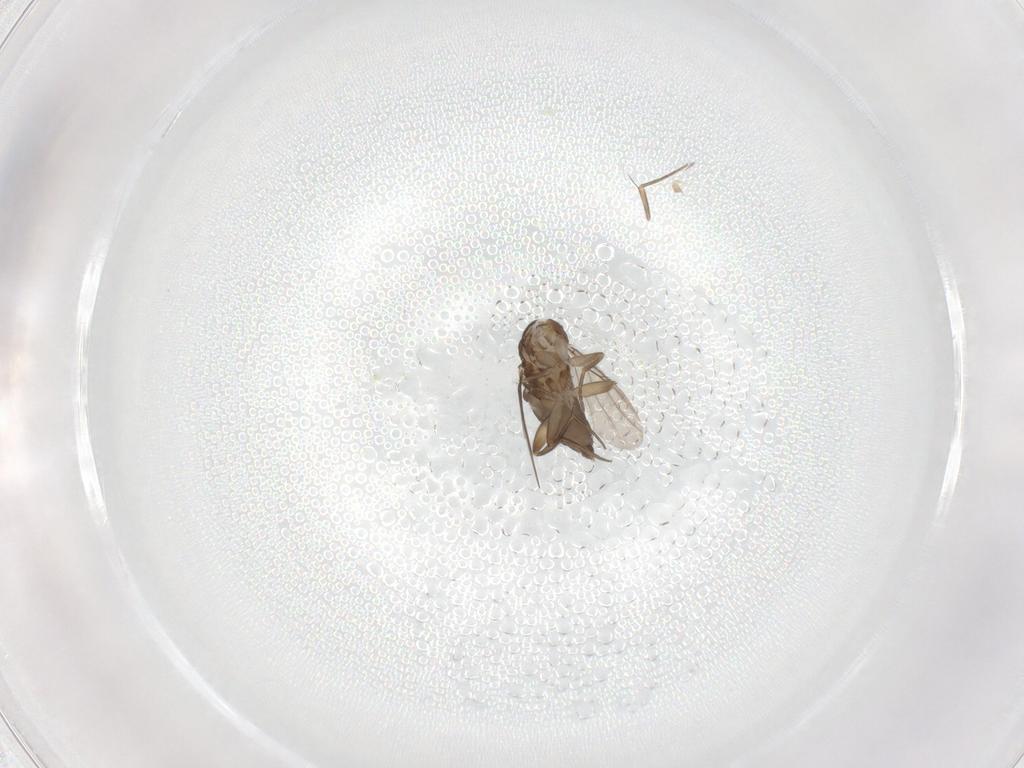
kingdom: Animalia
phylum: Arthropoda
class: Insecta
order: Diptera
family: Phoridae
